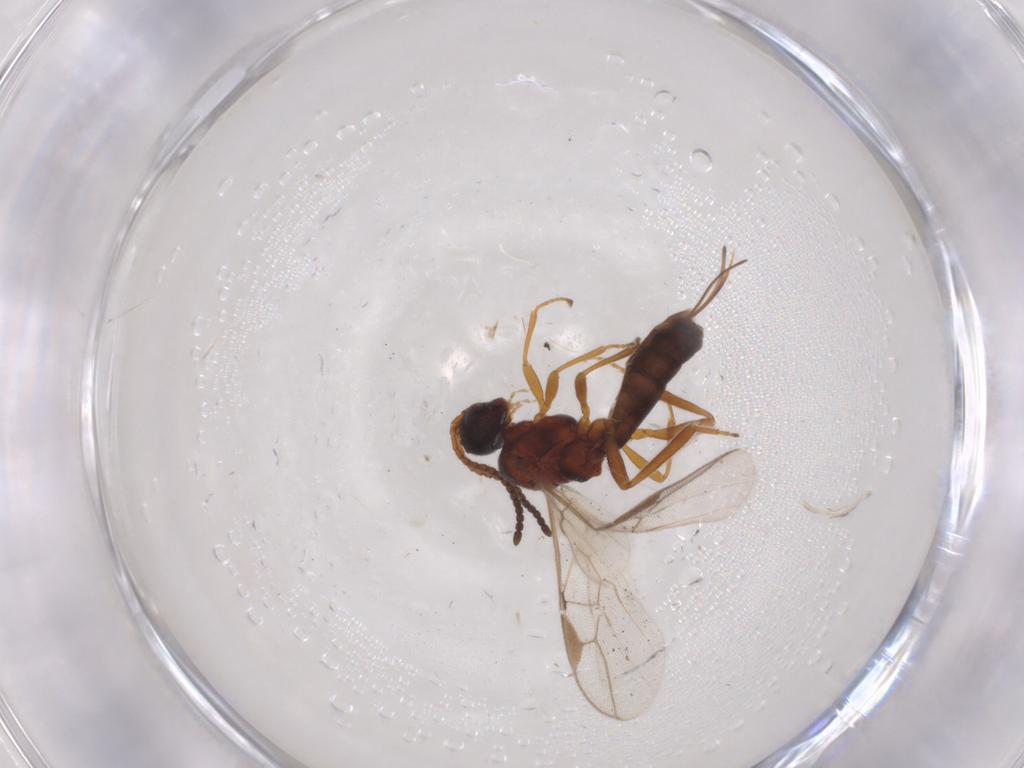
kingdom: Animalia
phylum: Arthropoda
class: Insecta
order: Hymenoptera
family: Braconidae
